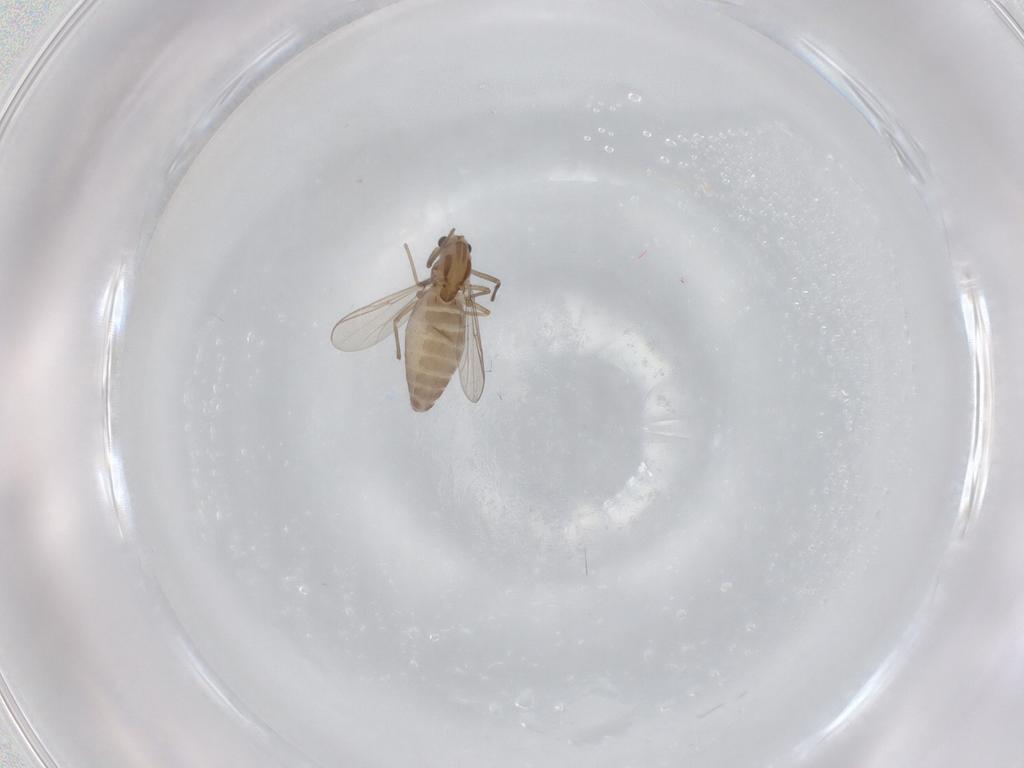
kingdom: Animalia
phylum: Arthropoda
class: Insecta
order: Diptera
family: Chironomidae
